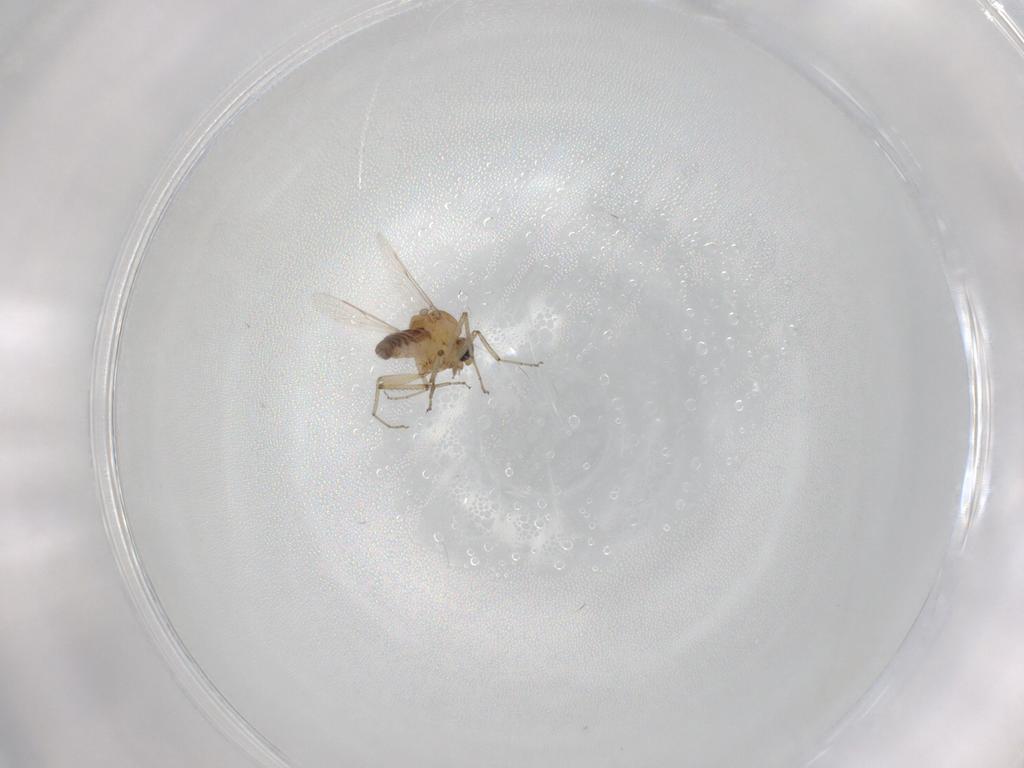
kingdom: Animalia
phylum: Arthropoda
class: Insecta
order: Diptera
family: Ceratopogonidae
